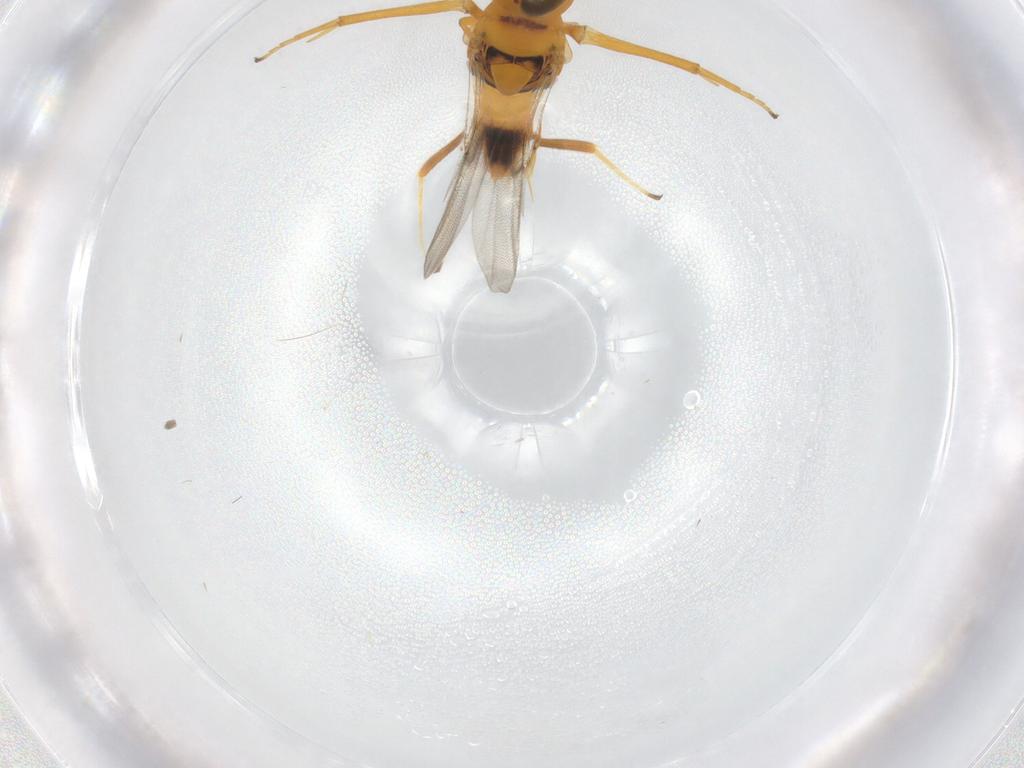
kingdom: Animalia
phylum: Arthropoda
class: Insecta
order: Hymenoptera
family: Encyrtidae
